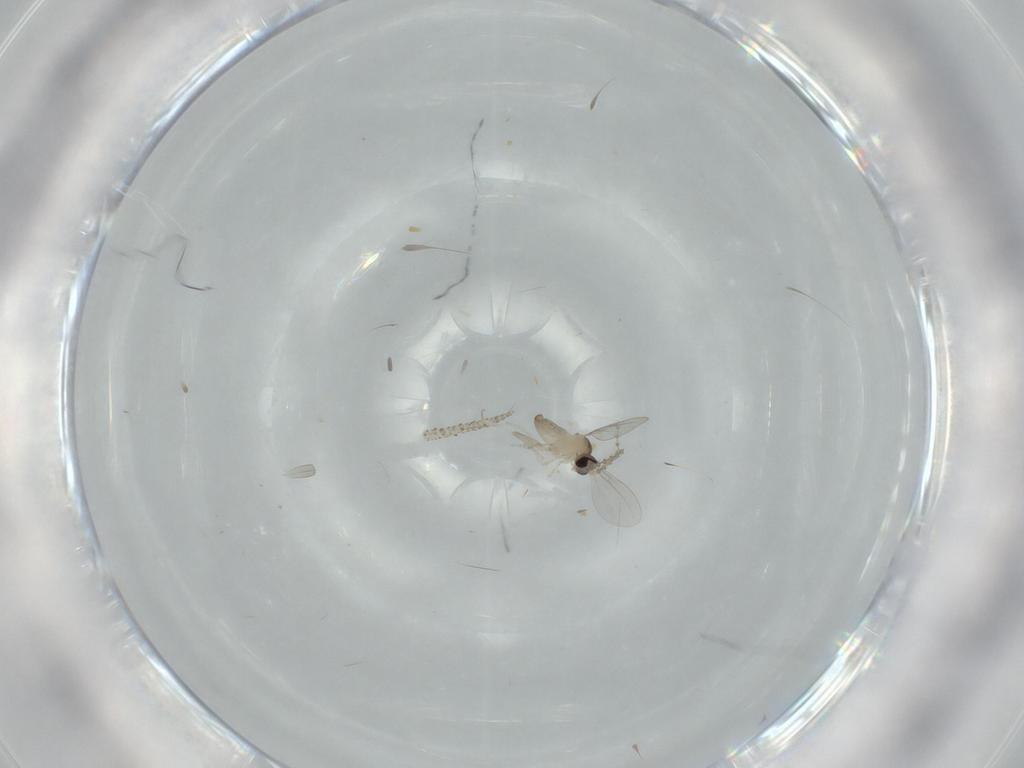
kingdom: Animalia
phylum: Arthropoda
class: Insecta
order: Diptera
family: Cecidomyiidae
